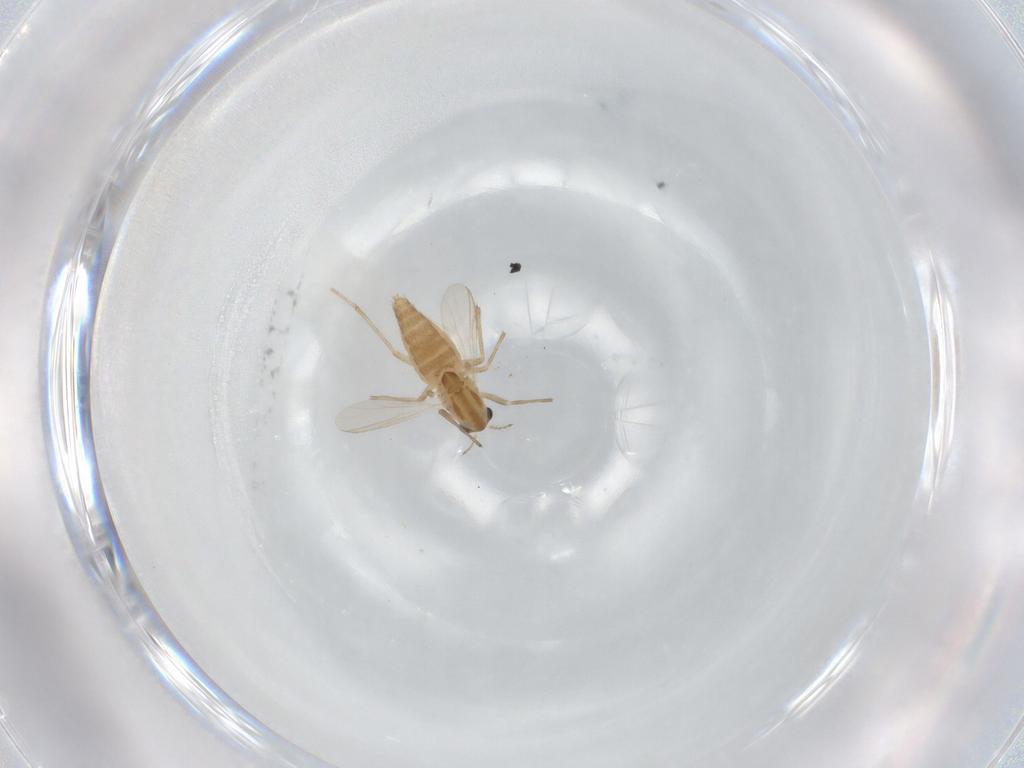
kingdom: Animalia
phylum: Arthropoda
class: Insecta
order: Diptera
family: Chironomidae
